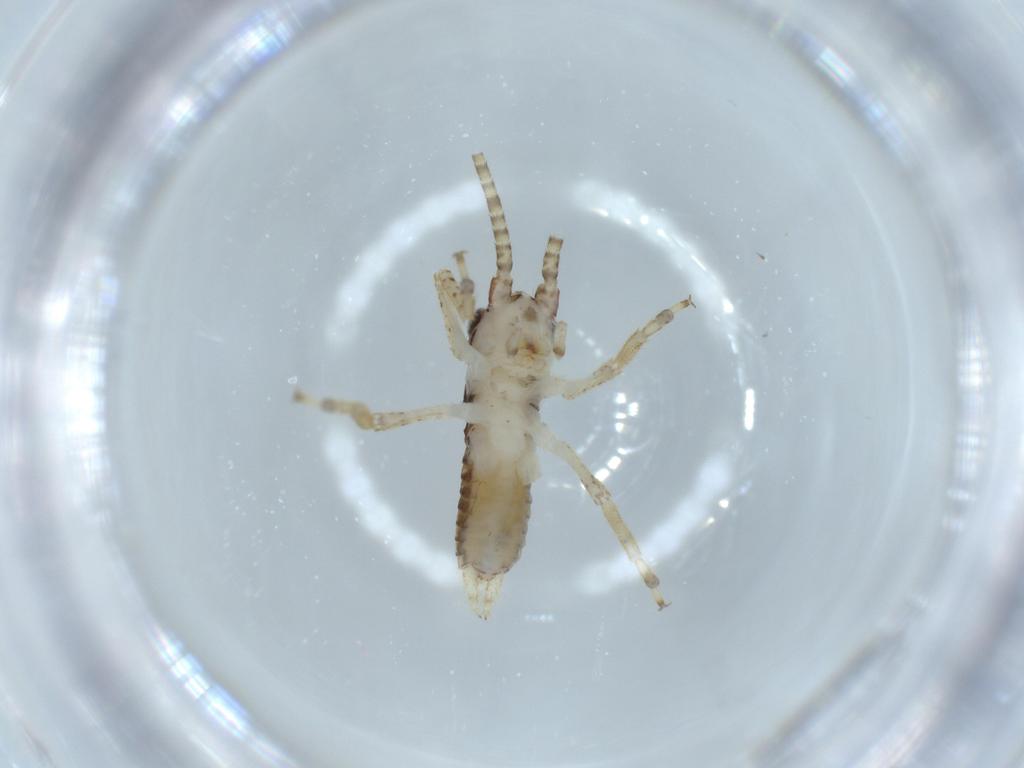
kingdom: Animalia
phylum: Arthropoda
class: Insecta
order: Orthoptera
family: Gryllidae
